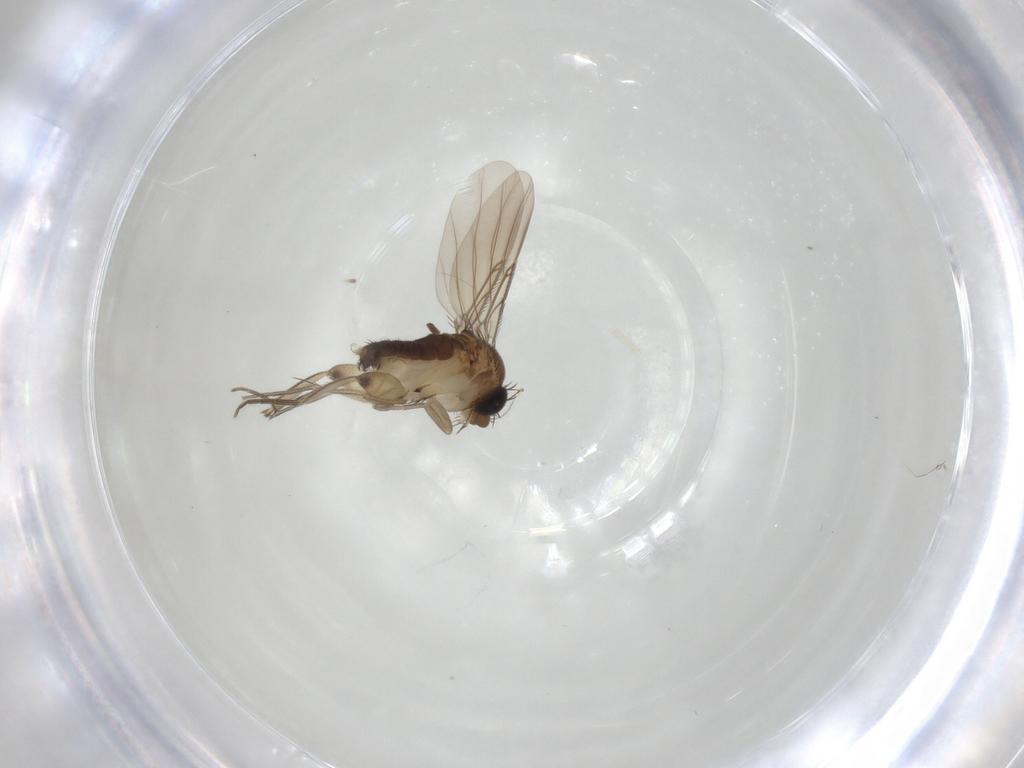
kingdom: Animalia
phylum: Arthropoda
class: Insecta
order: Diptera
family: Phoridae
